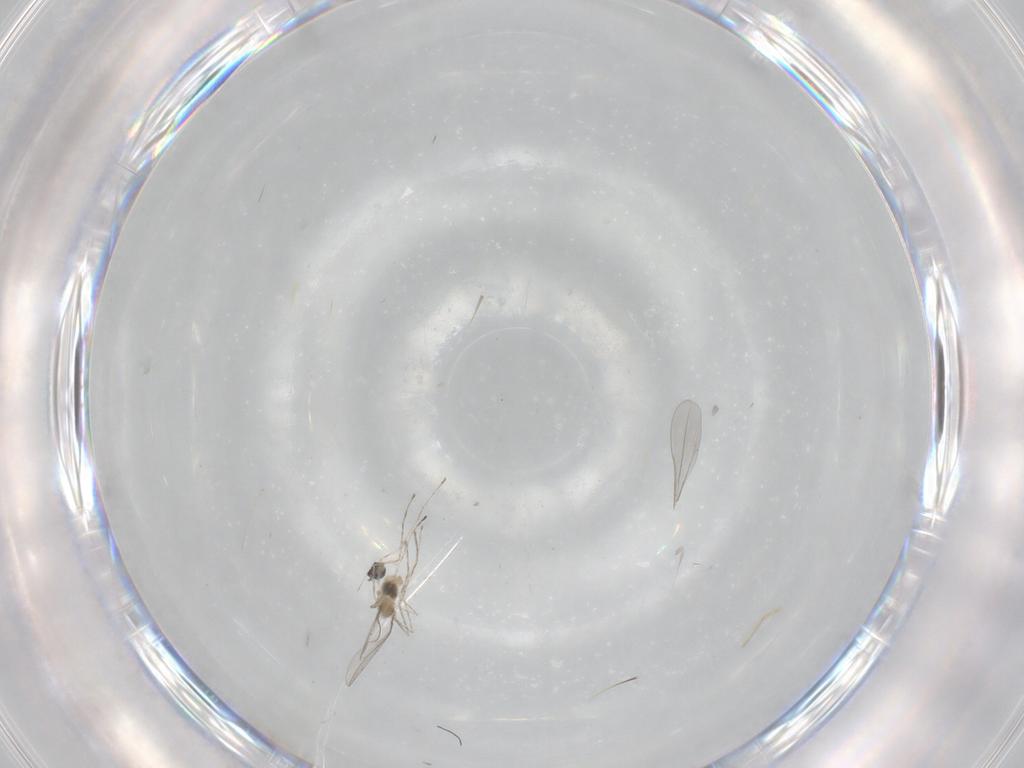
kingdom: Animalia
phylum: Arthropoda
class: Insecta
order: Diptera
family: Cecidomyiidae
